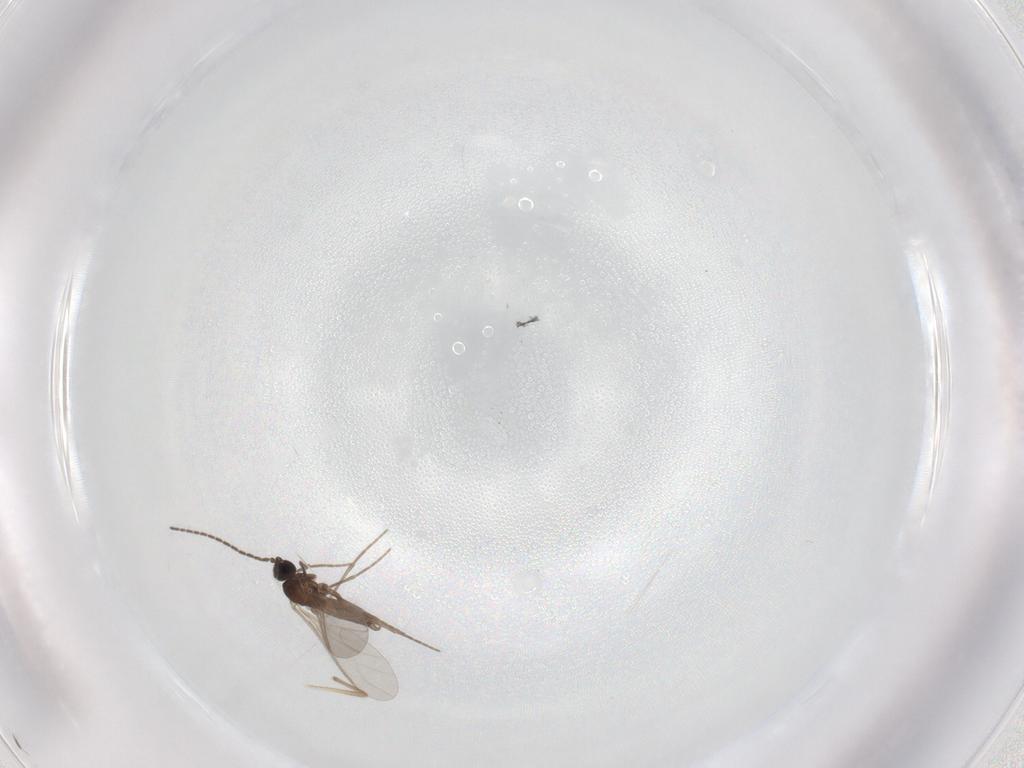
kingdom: Animalia
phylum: Arthropoda
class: Insecta
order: Diptera
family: Sciaridae
